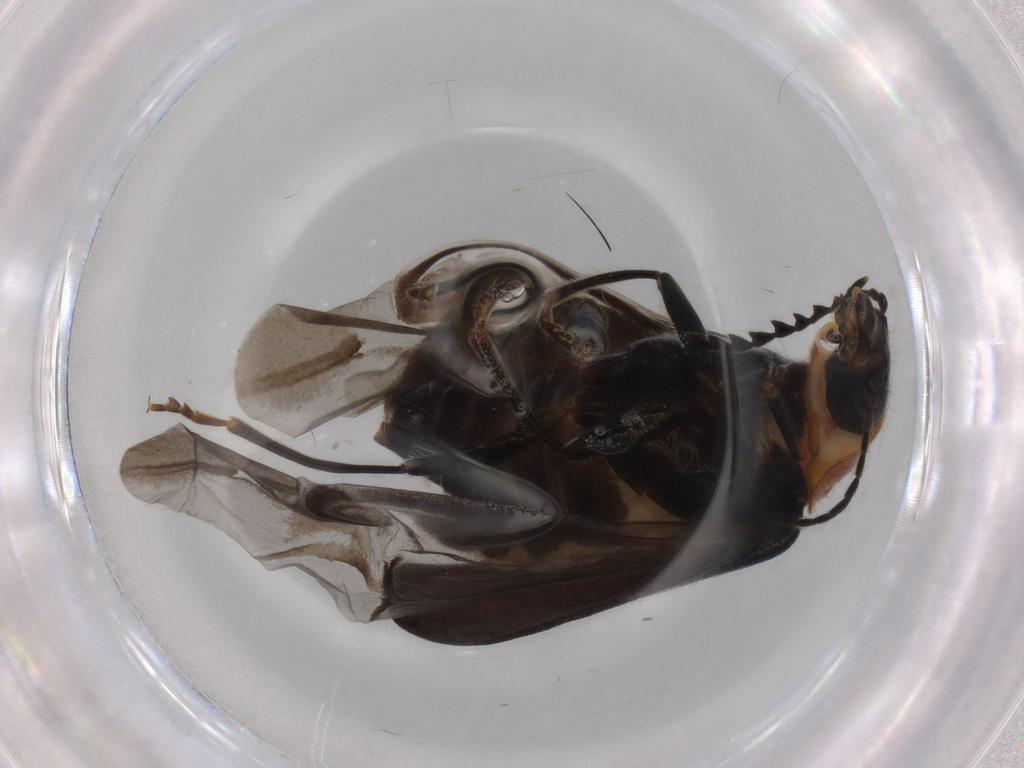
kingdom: Animalia
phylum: Arthropoda
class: Insecta
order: Coleoptera
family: Melyridae
